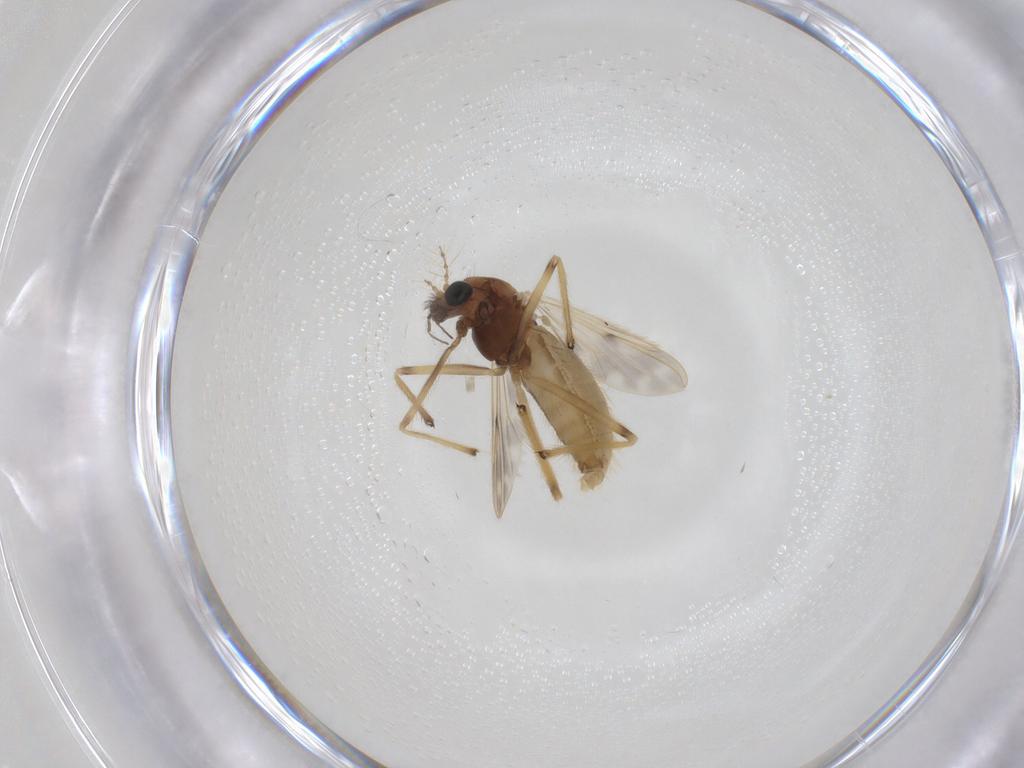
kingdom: Animalia
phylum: Arthropoda
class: Insecta
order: Diptera
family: Chironomidae
